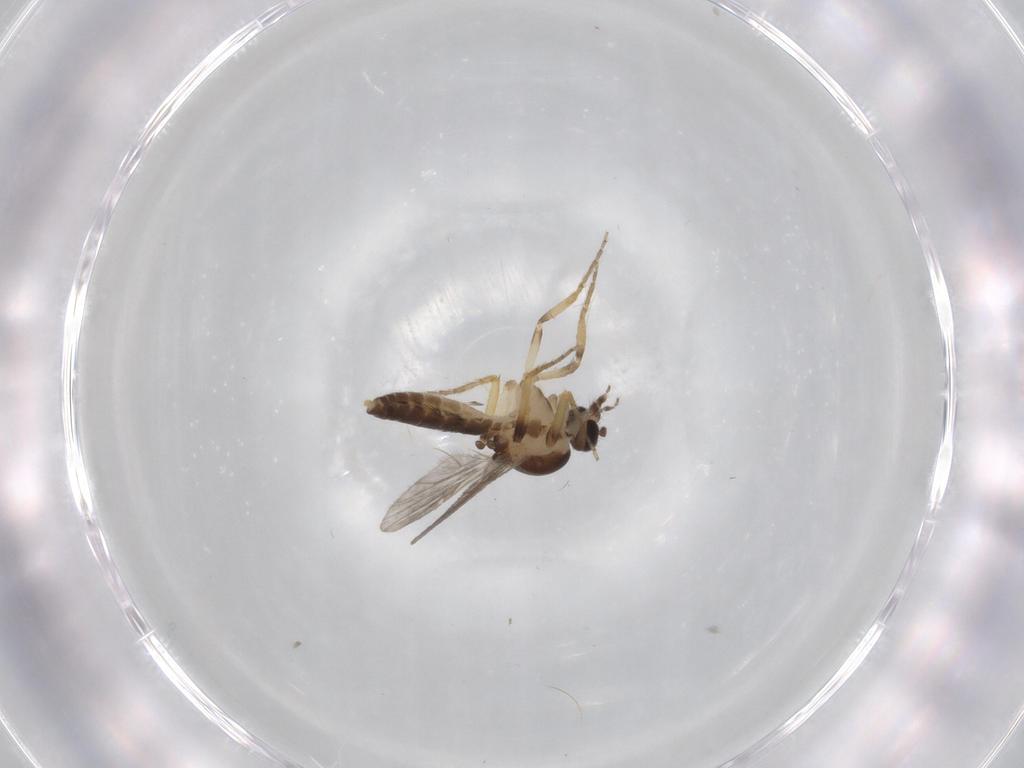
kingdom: Animalia
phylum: Arthropoda
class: Insecta
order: Diptera
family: Ceratopogonidae
